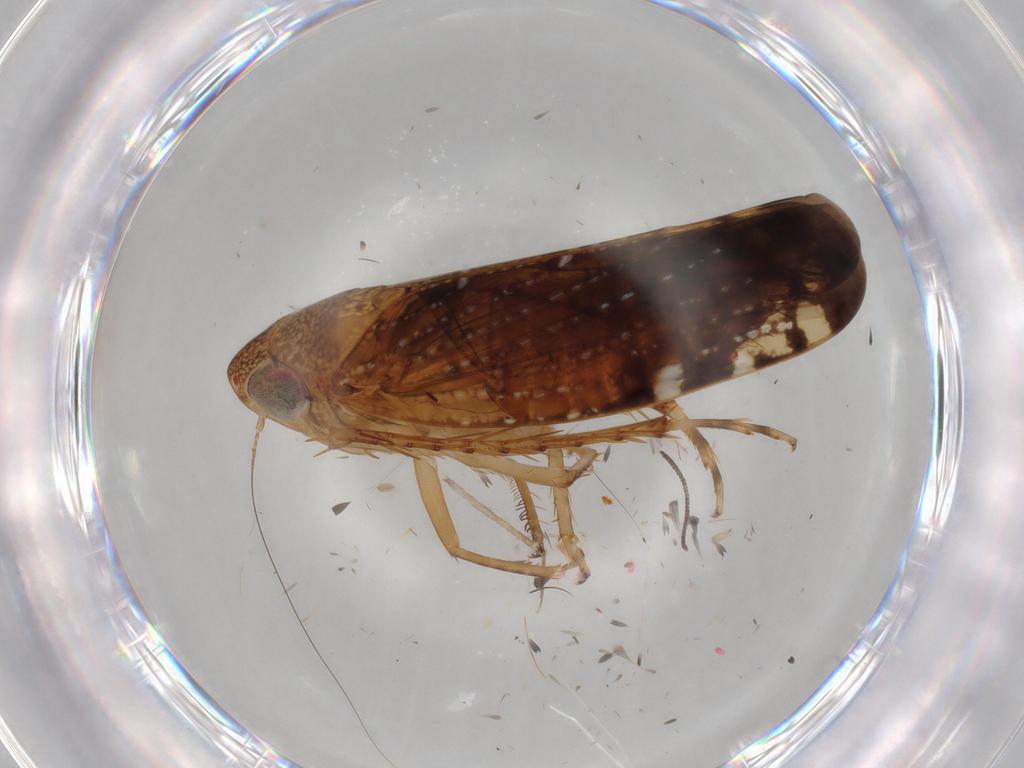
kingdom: Animalia
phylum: Arthropoda
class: Insecta
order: Hemiptera
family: Cicadellidae
